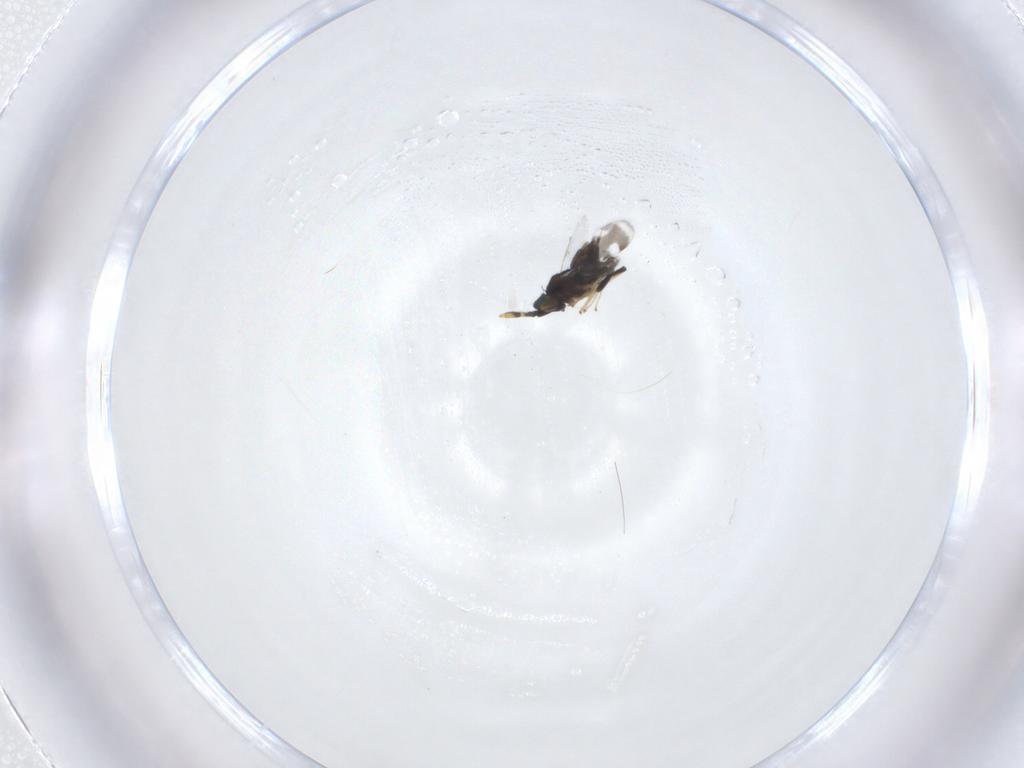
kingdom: Animalia
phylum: Arthropoda
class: Insecta
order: Hymenoptera
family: Encyrtidae
